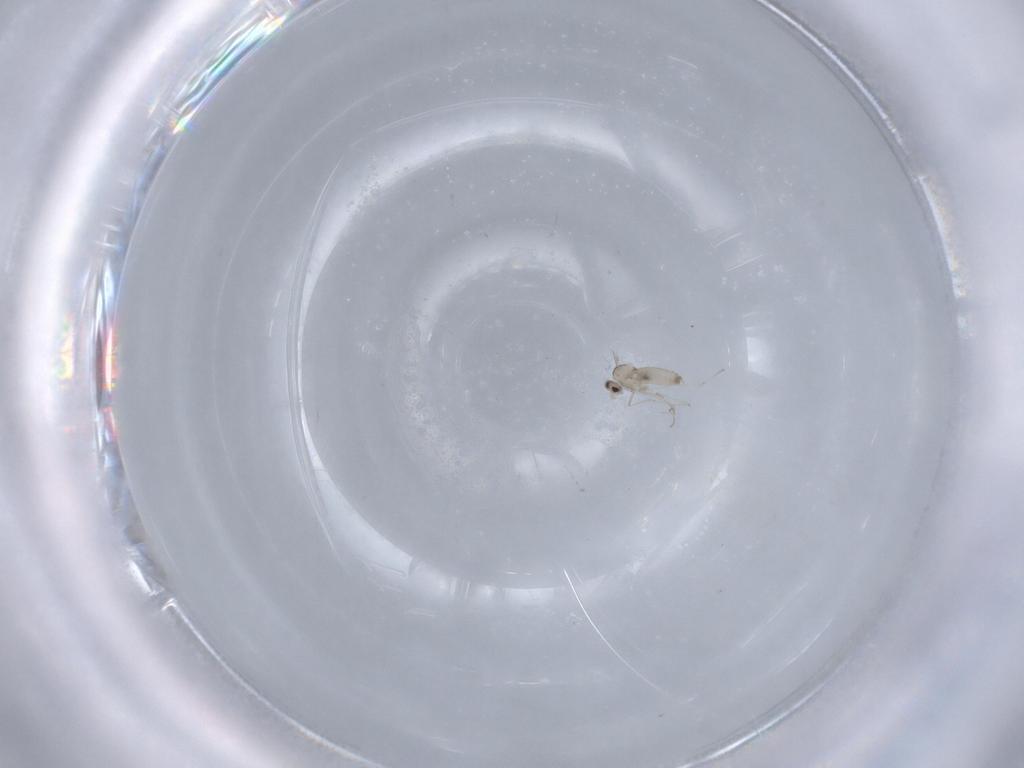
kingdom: Animalia
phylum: Arthropoda
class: Insecta
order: Diptera
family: Cecidomyiidae
